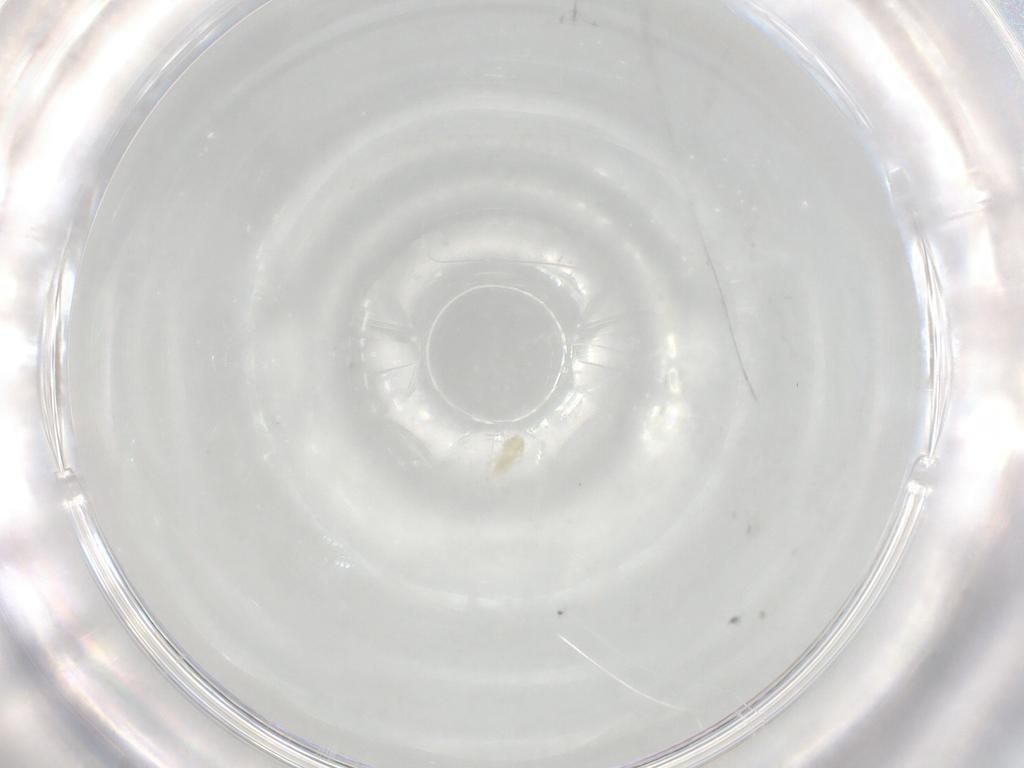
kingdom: Animalia
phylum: Arthropoda
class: Arachnida
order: Trombidiformes
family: Eupodidae
